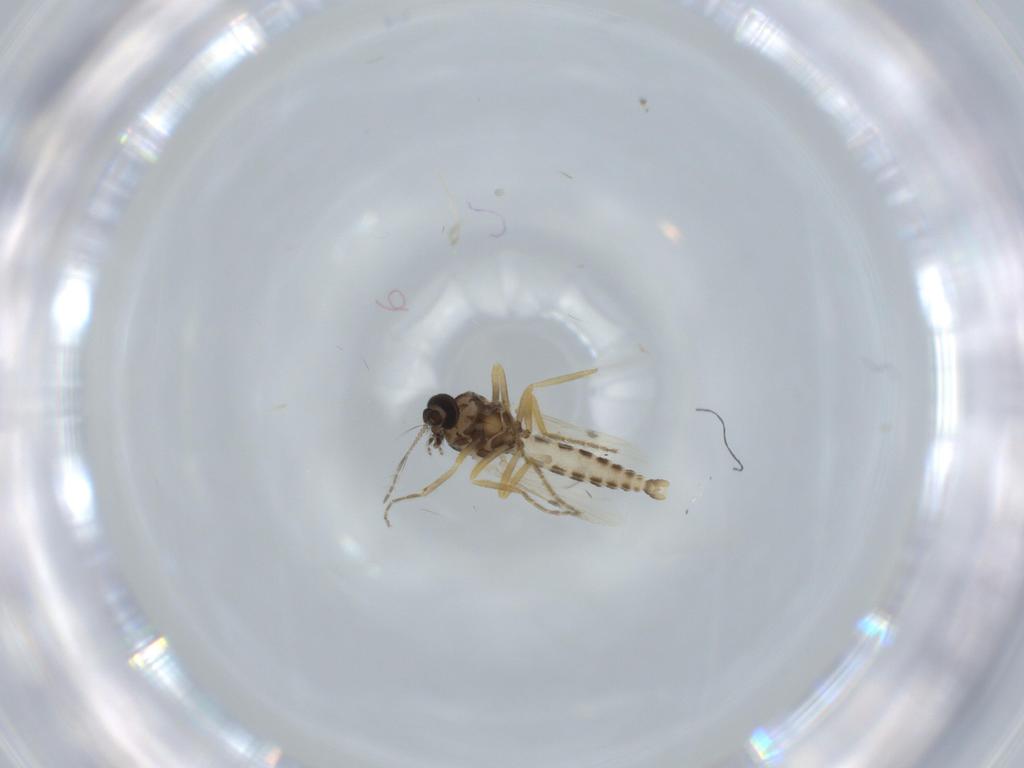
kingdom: Animalia
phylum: Arthropoda
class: Insecta
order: Diptera
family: Ceratopogonidae
